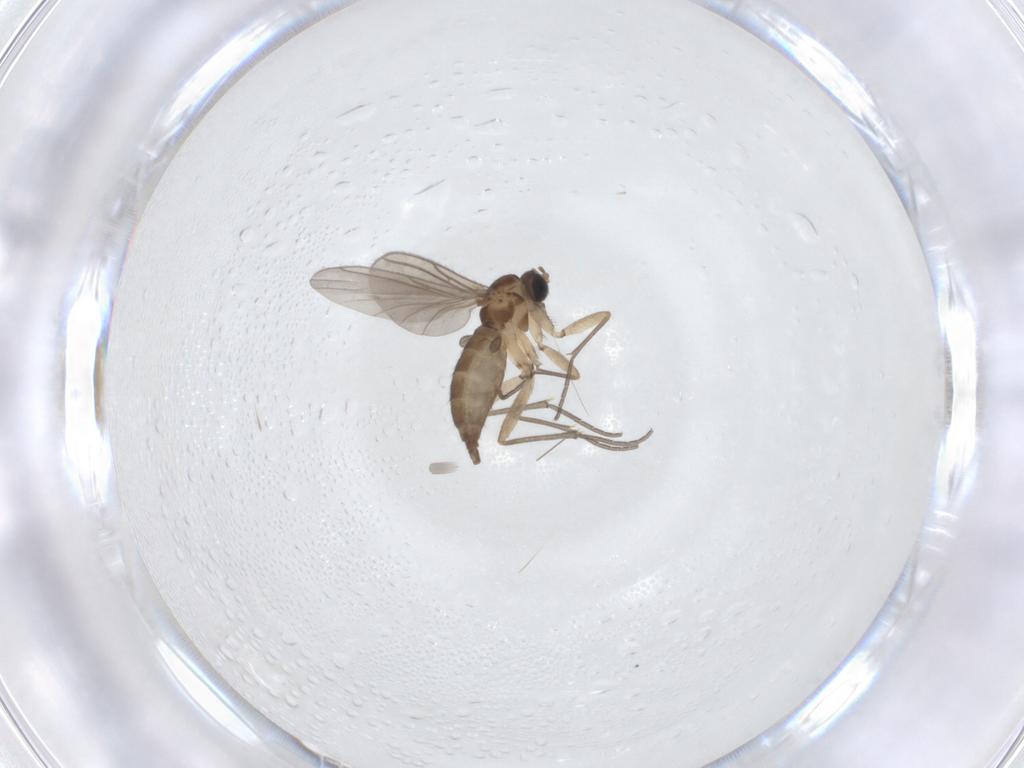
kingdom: Animalia
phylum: Arthropoda
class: Insecta
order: Diptera
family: Sciaridae
